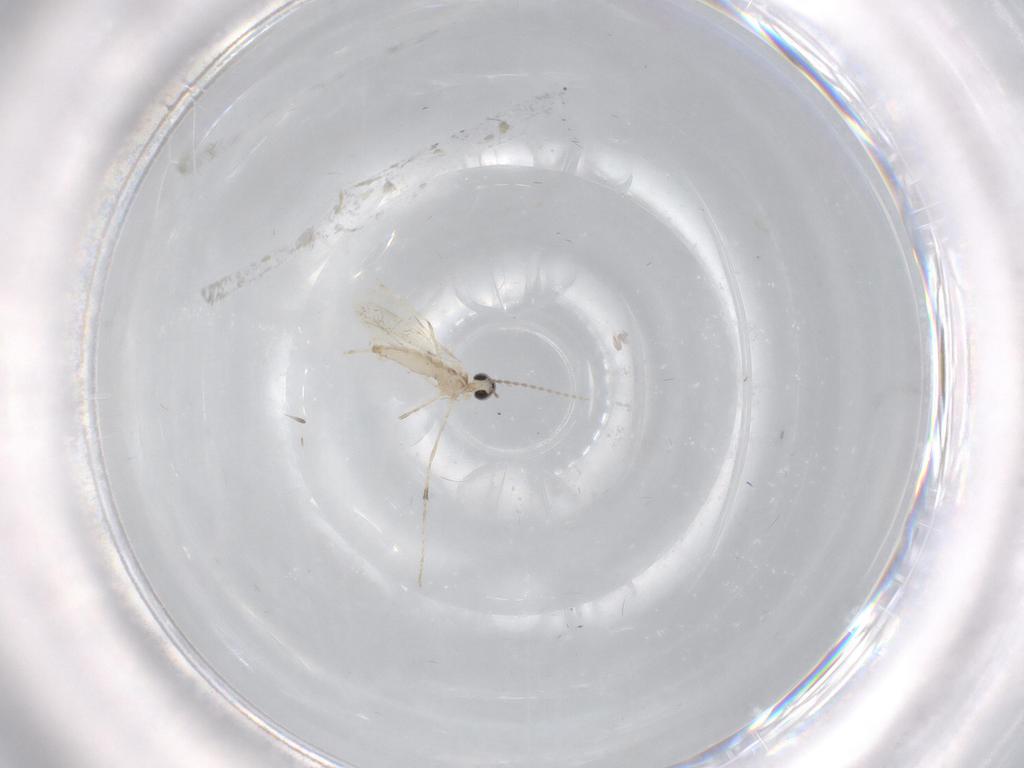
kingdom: Animalia
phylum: Arthropoda
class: Insecta
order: Diptera
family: Cecidomyiidae
